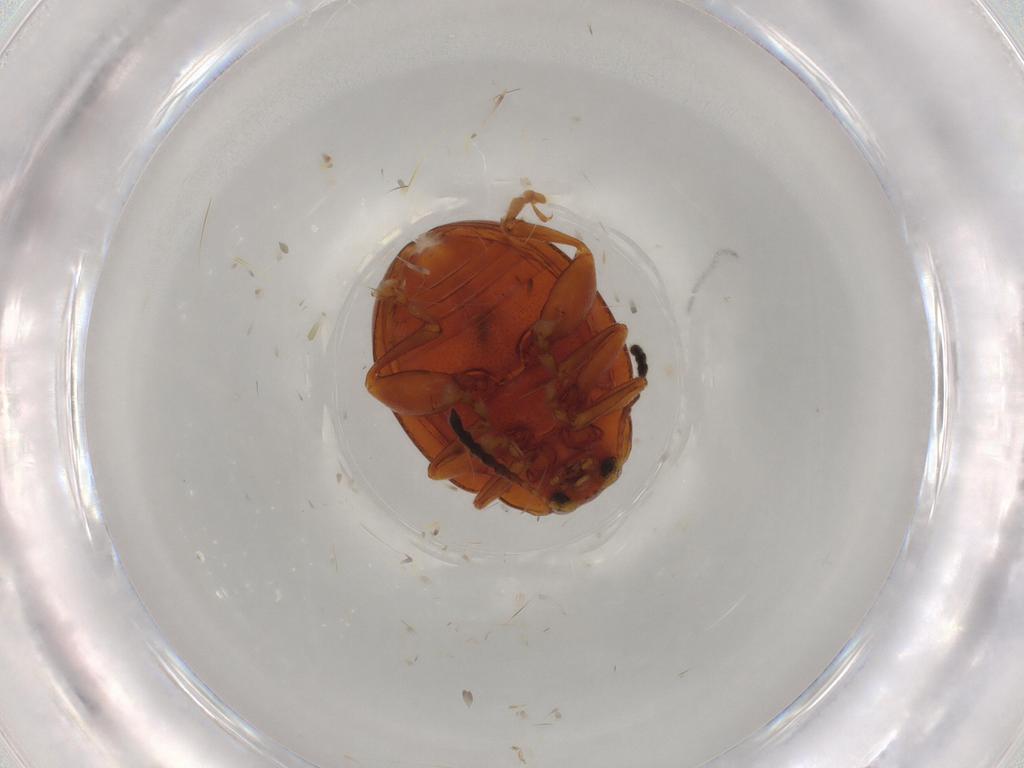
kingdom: Animalia
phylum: Arthropoda
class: Insecta
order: Coleoptera
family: Chrysomelidae
